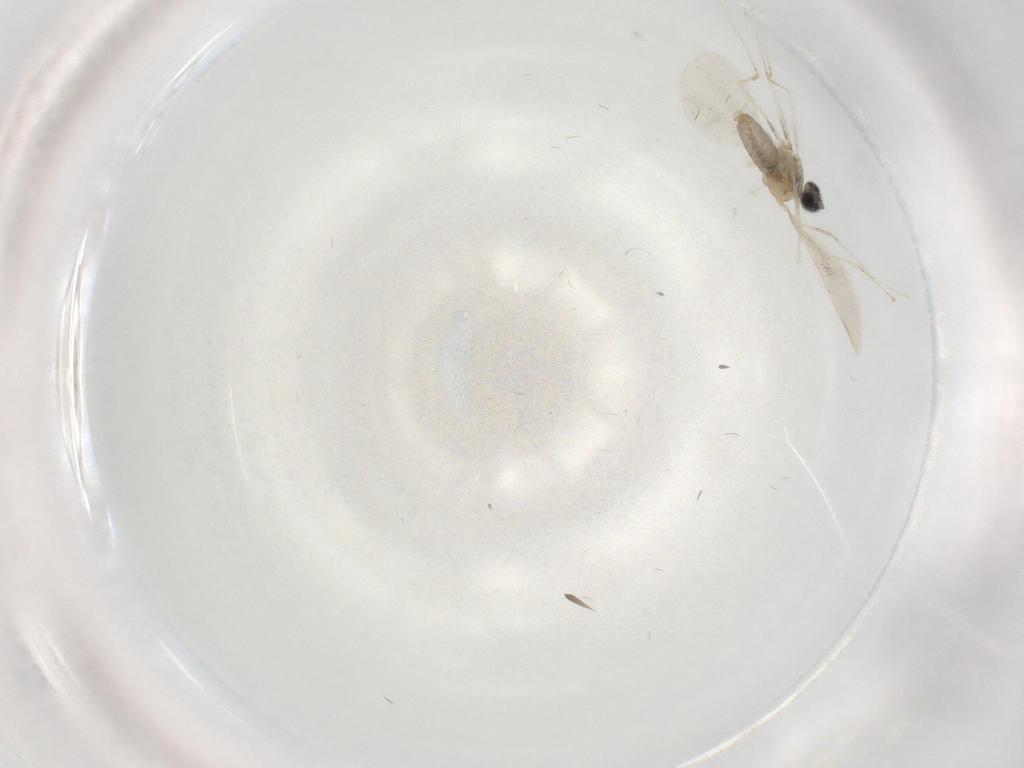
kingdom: Animalia
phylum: Arthropoda
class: Insecta
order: Diptera
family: Cecidomyiidae
